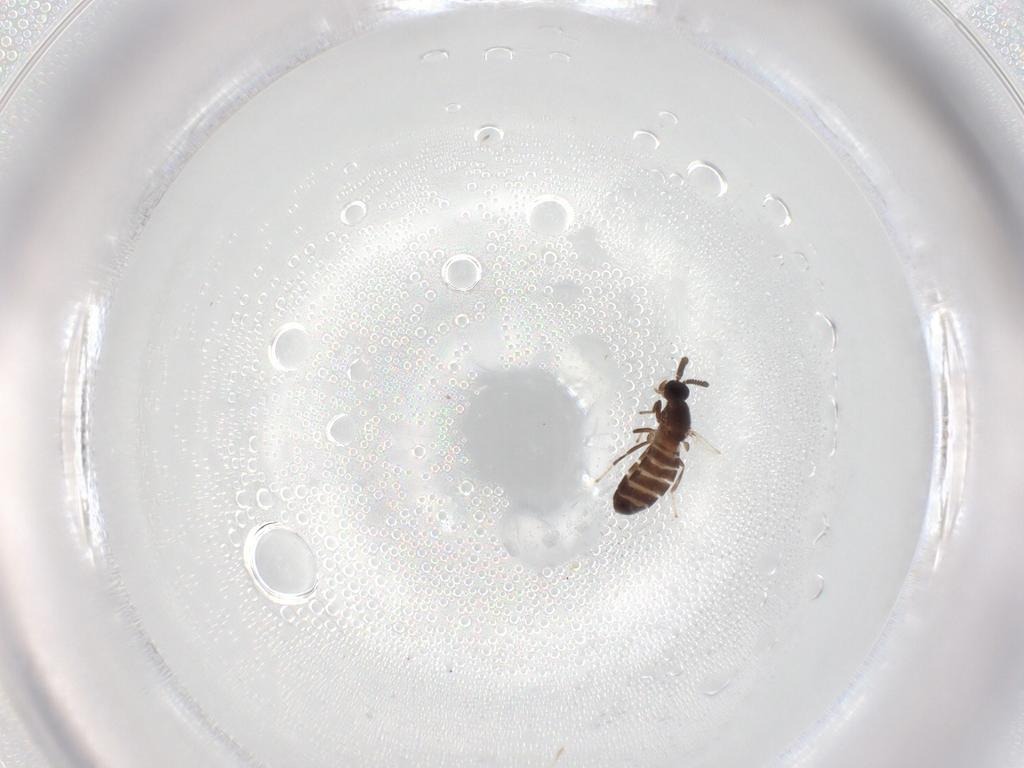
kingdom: Animalia
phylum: Arthropoda
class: Insecta
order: Diptera
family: Scatopsidae
